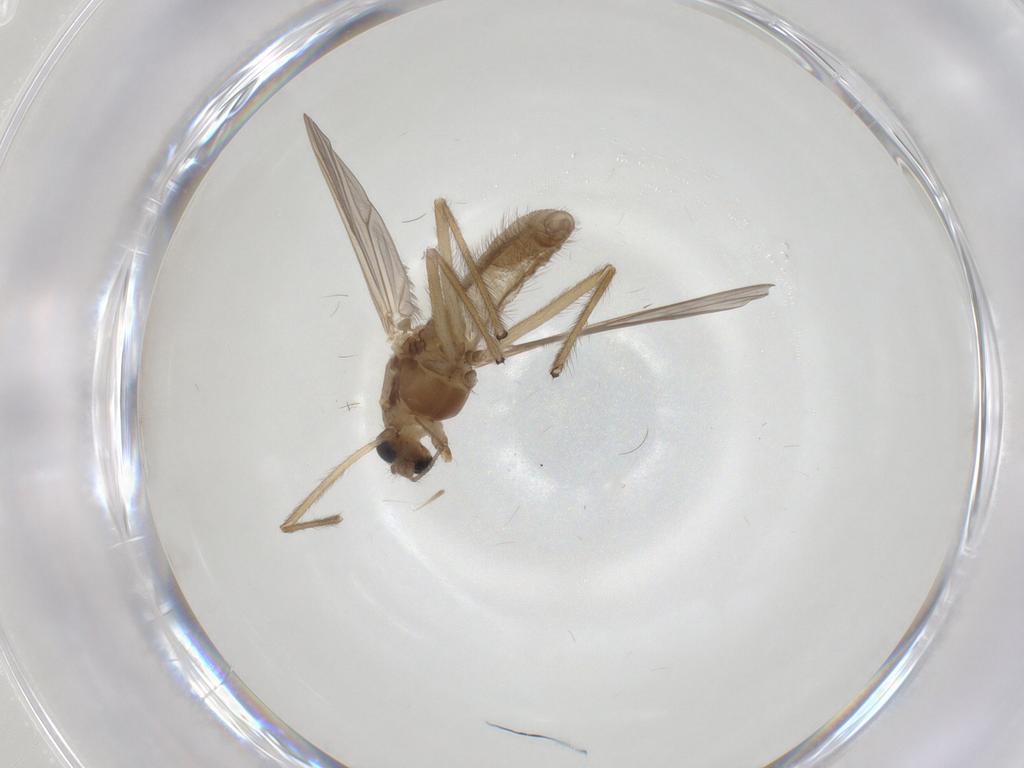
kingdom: Animalia
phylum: Arthropoda
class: Insecta
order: Diptera
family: Chironomidae
